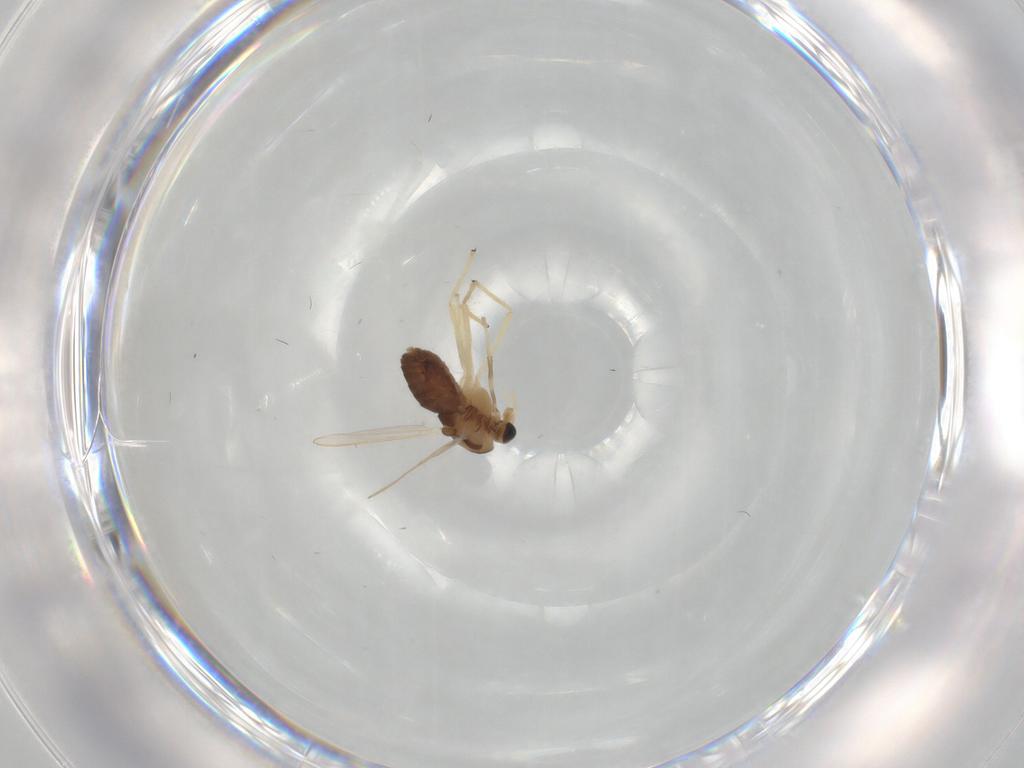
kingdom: Animalia
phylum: Arthropoda
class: Insecta
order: Diptera
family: Chironomidae
